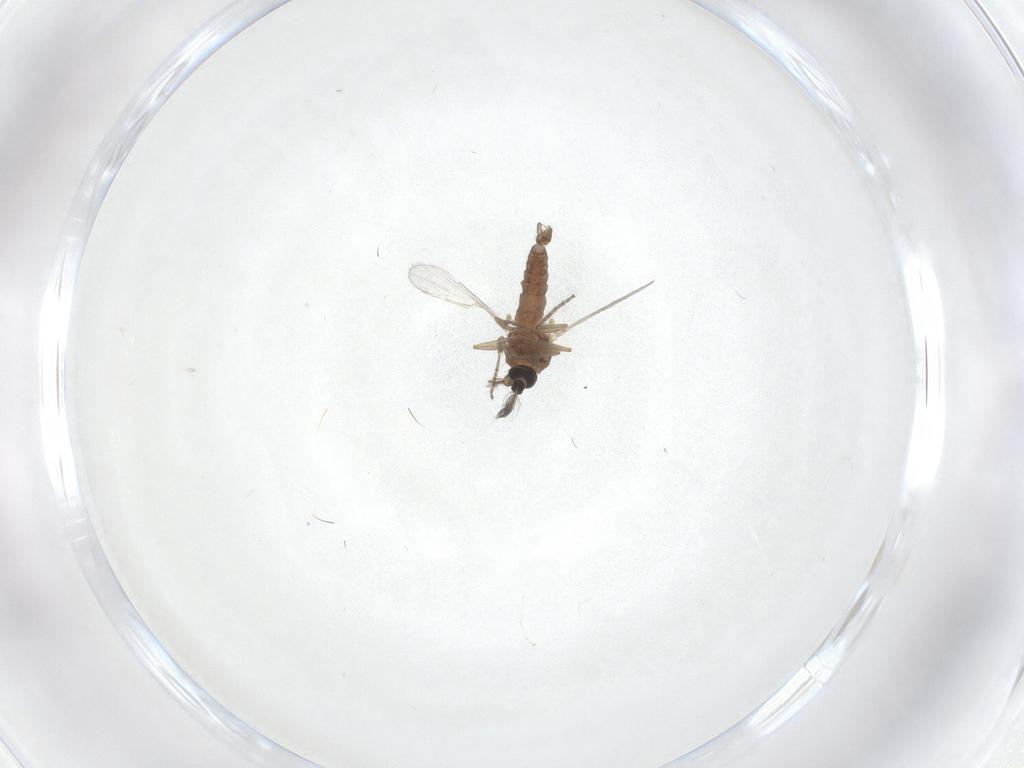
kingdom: Animalia
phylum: Arthropoda
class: Insecta
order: Diptera
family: Ceratopogonidae
